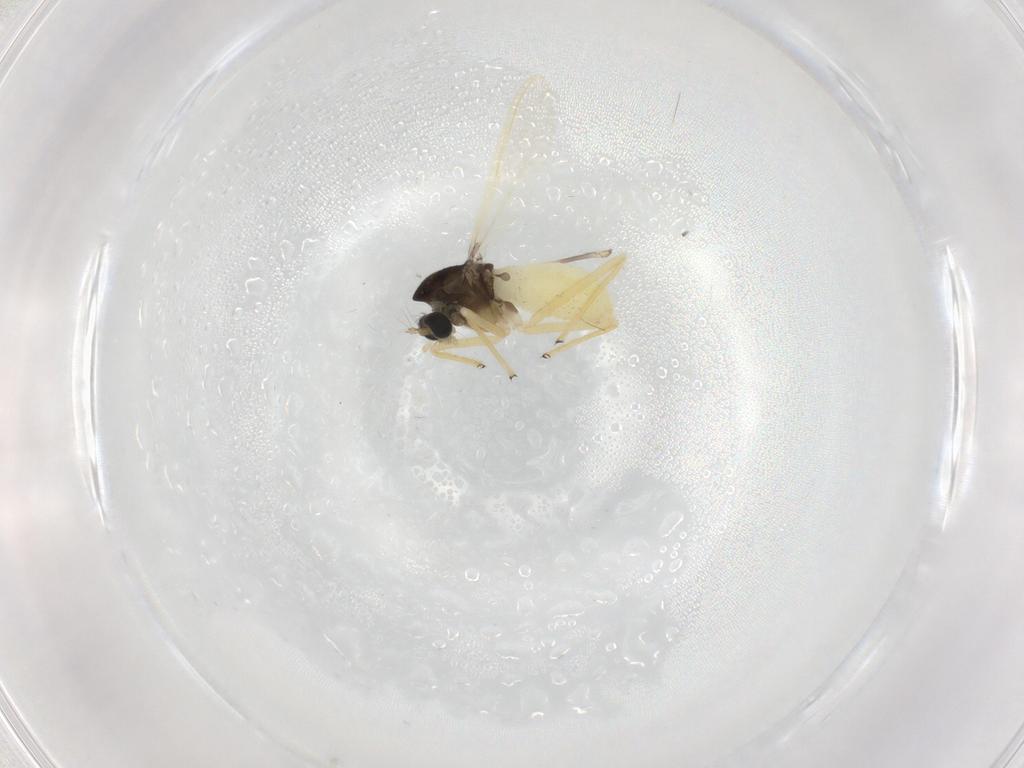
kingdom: Animalia
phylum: Arthropoda
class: Insecta
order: Diptera
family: Chironomidae
